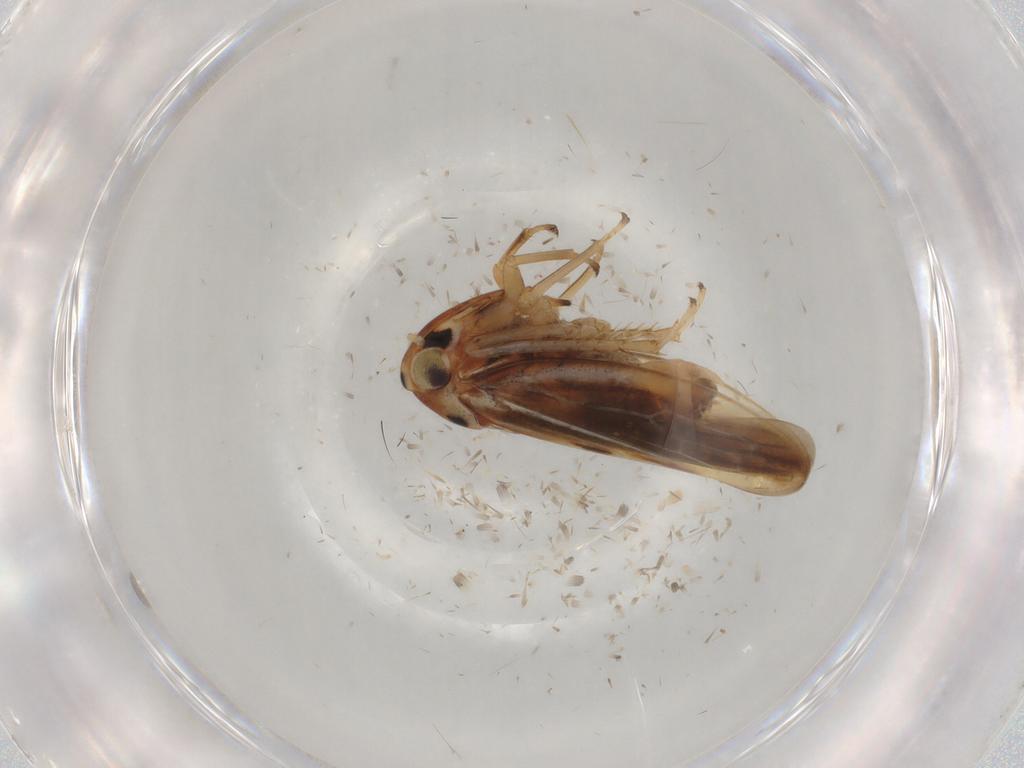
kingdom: Animalia
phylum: Arthropoda
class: Insecta
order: Hemiptera
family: Cicadellidae
